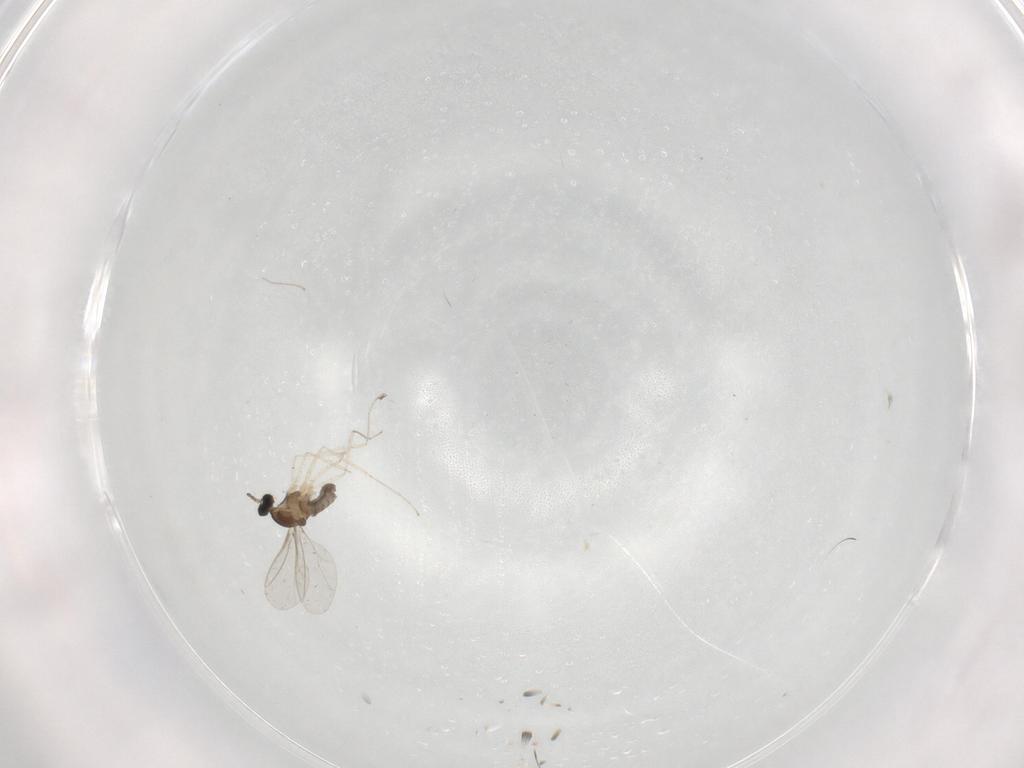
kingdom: Animalia
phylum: Arthropoda
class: Insecta
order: Diptera
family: Cecidomyiidae
